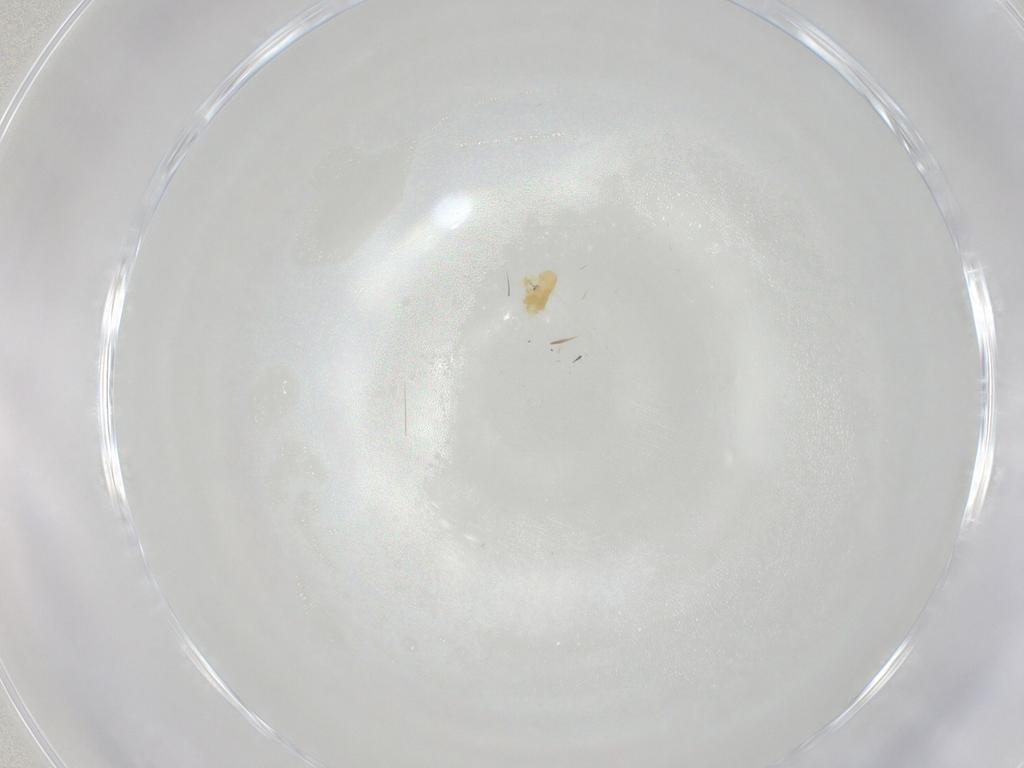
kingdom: Animalia
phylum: Arthropoda
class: Arachnida
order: Trombidiformes
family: Eupodidae
